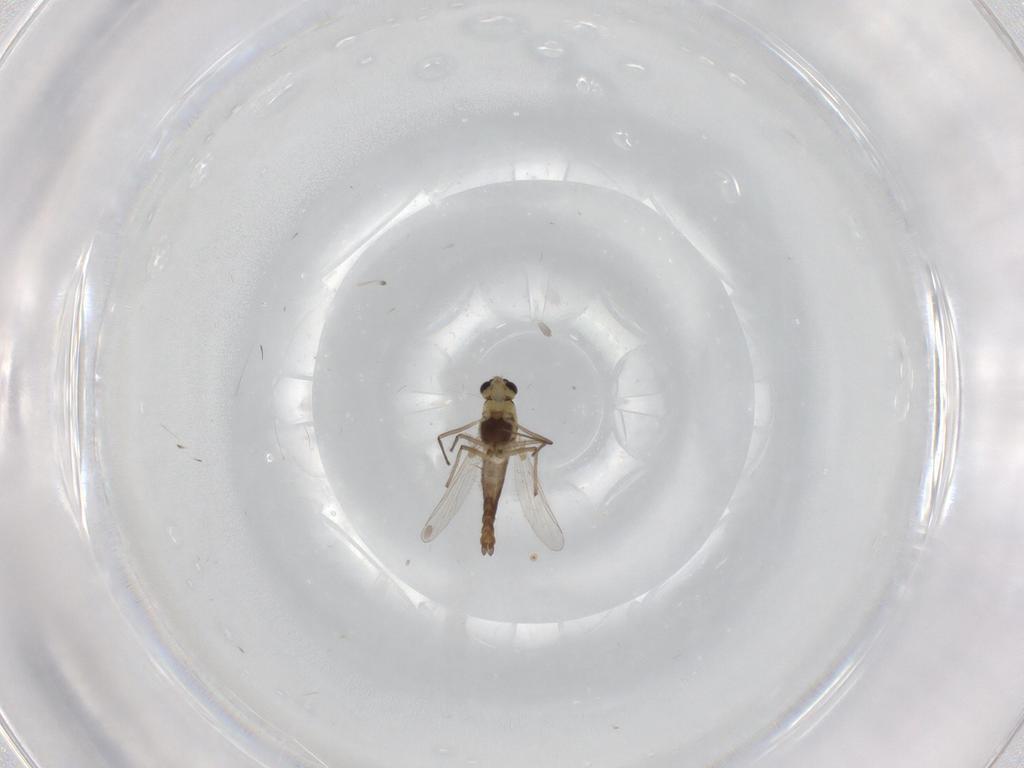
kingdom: Animalia
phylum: Arthropoda
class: Insecta
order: Diptera
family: Chironomidae
